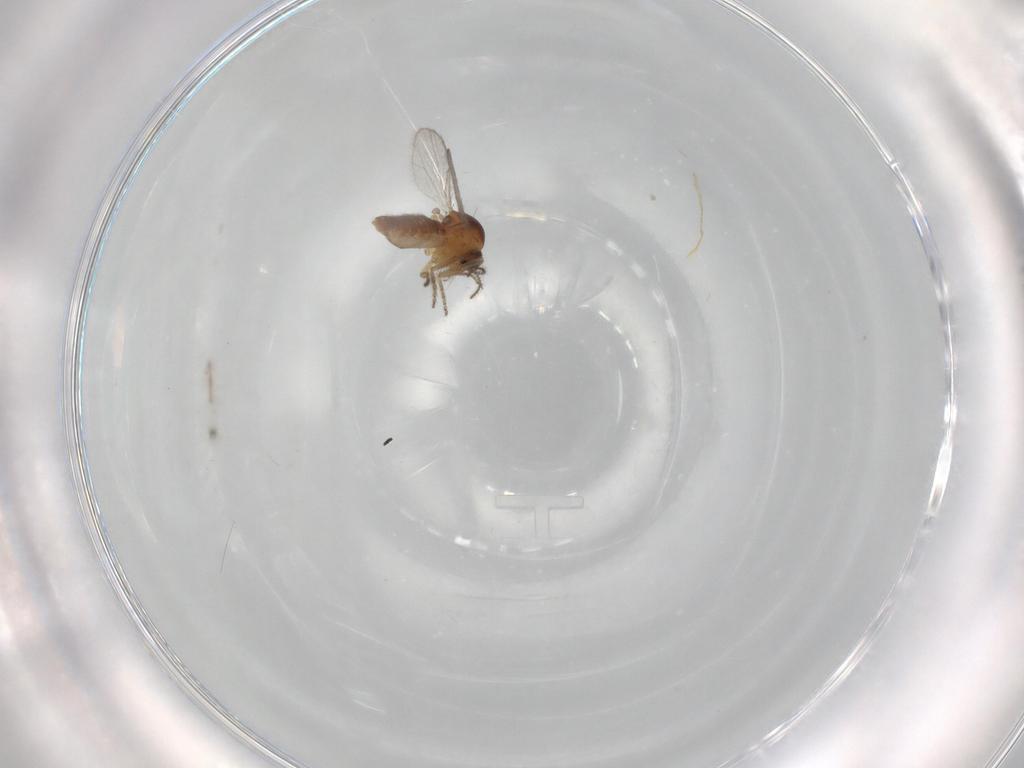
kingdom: Animalia
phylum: Arthropoda
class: Insecta
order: Diptera
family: Ceratopogonidae
